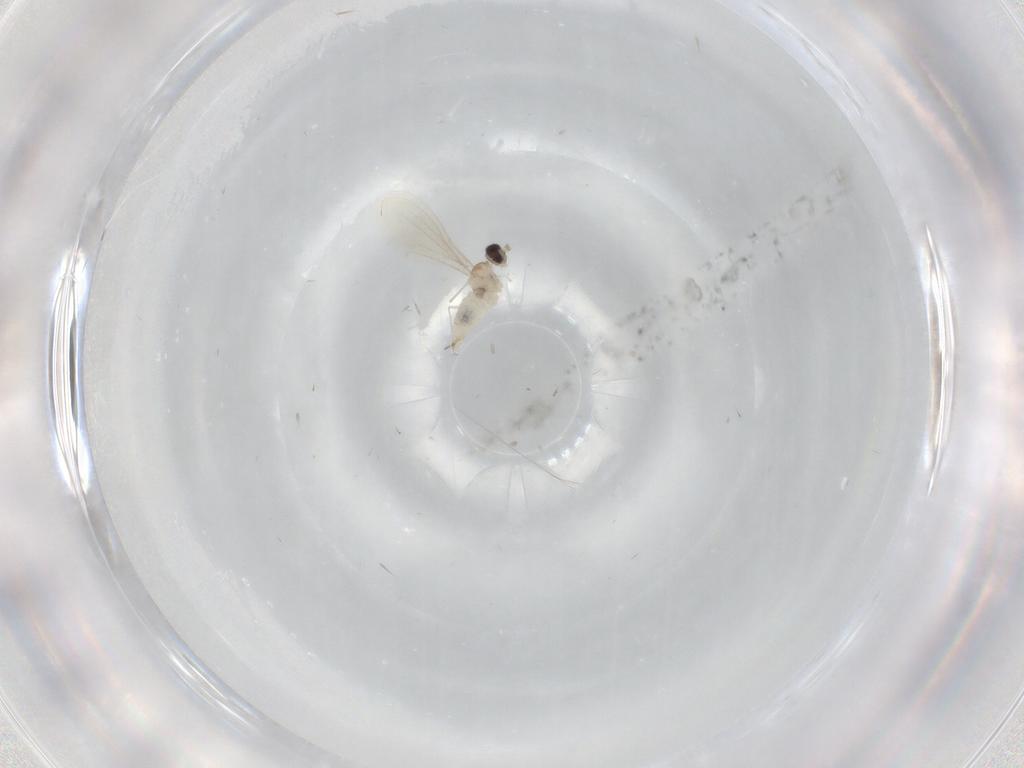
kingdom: Animalia
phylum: Arthropoda
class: Insecta
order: Diptera
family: Cecidomyiidae
